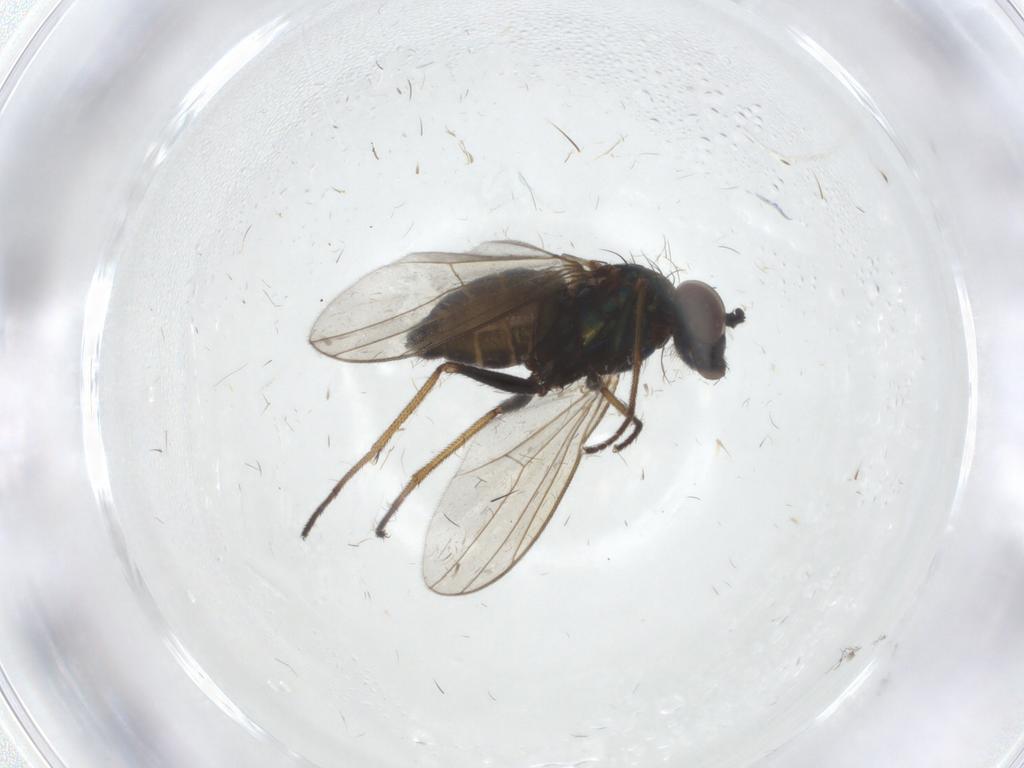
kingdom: Animalia
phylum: Arthropoda
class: Insecta
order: Diptera
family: Dolichopodidae
